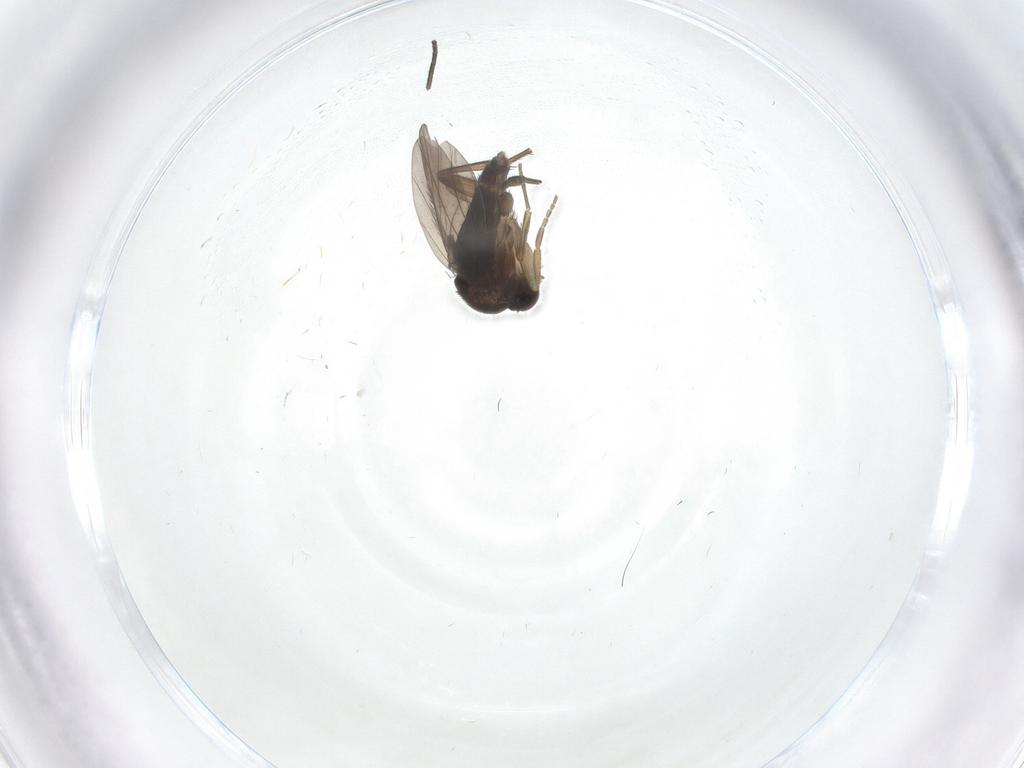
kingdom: Animalia
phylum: Arthropoda
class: Insecta
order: Diptera
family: Phoridae
